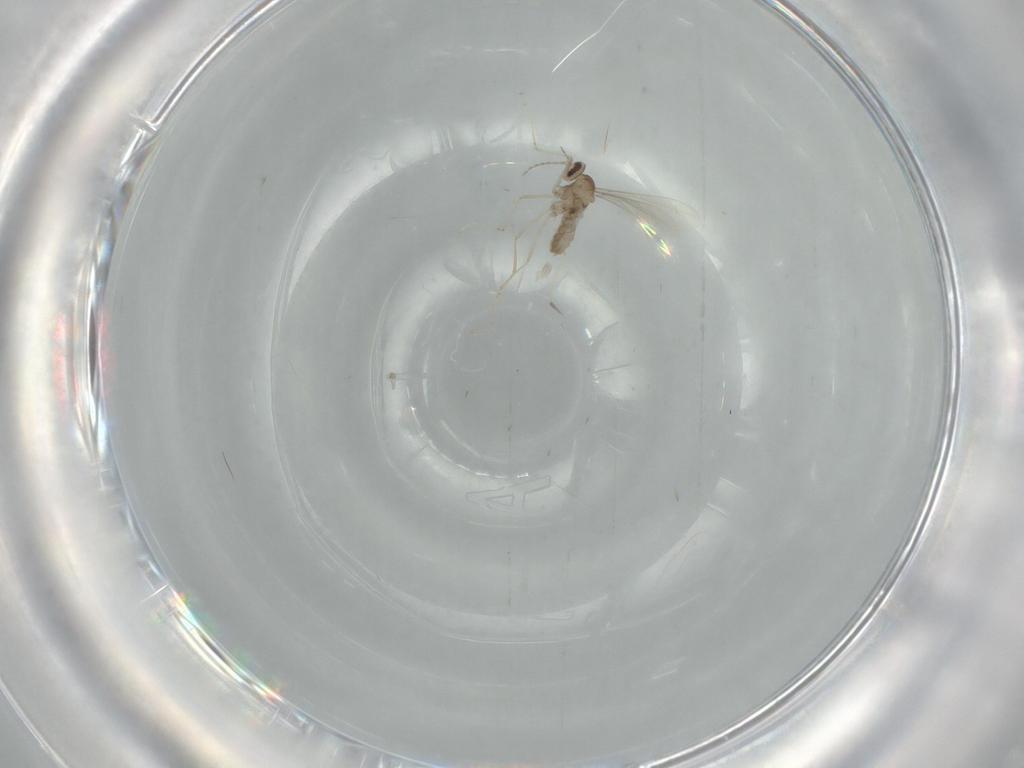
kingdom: Animalia
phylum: Arthropoda
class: Insecta
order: Diptera
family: Cecidomyiidae
